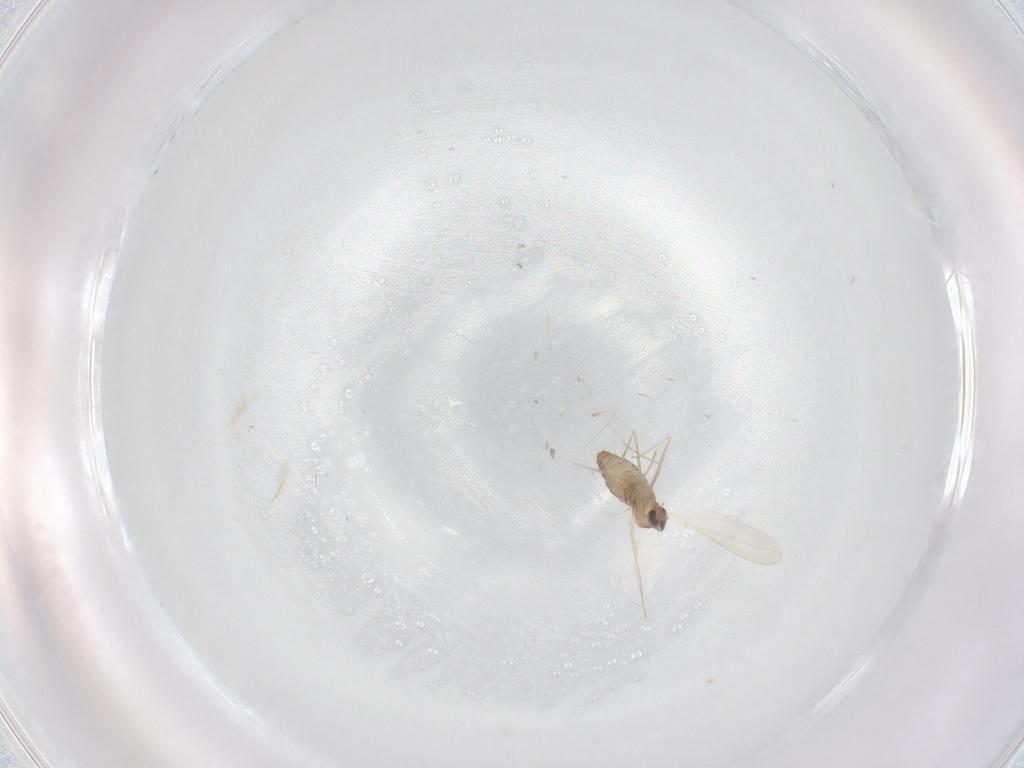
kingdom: Animalia
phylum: Arthropoda
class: Insecta
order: Diptera
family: Cecidomyiidae
